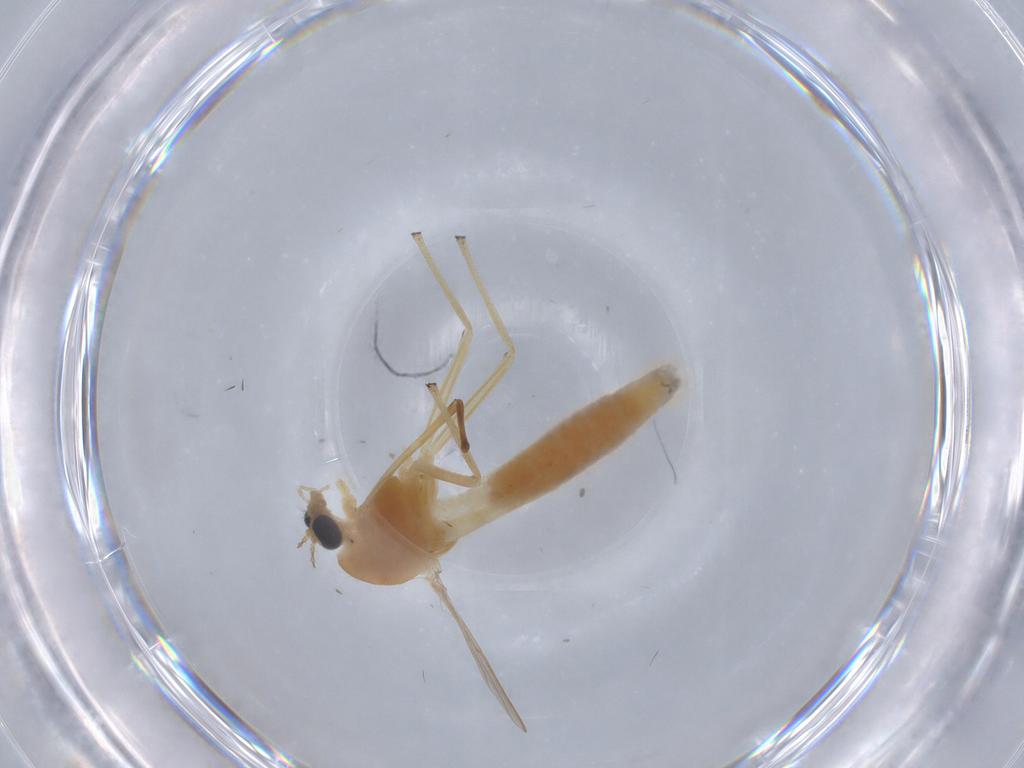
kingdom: Animalia
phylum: Arthropoda
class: Insecta
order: Diptera
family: Cecidomyiidae
